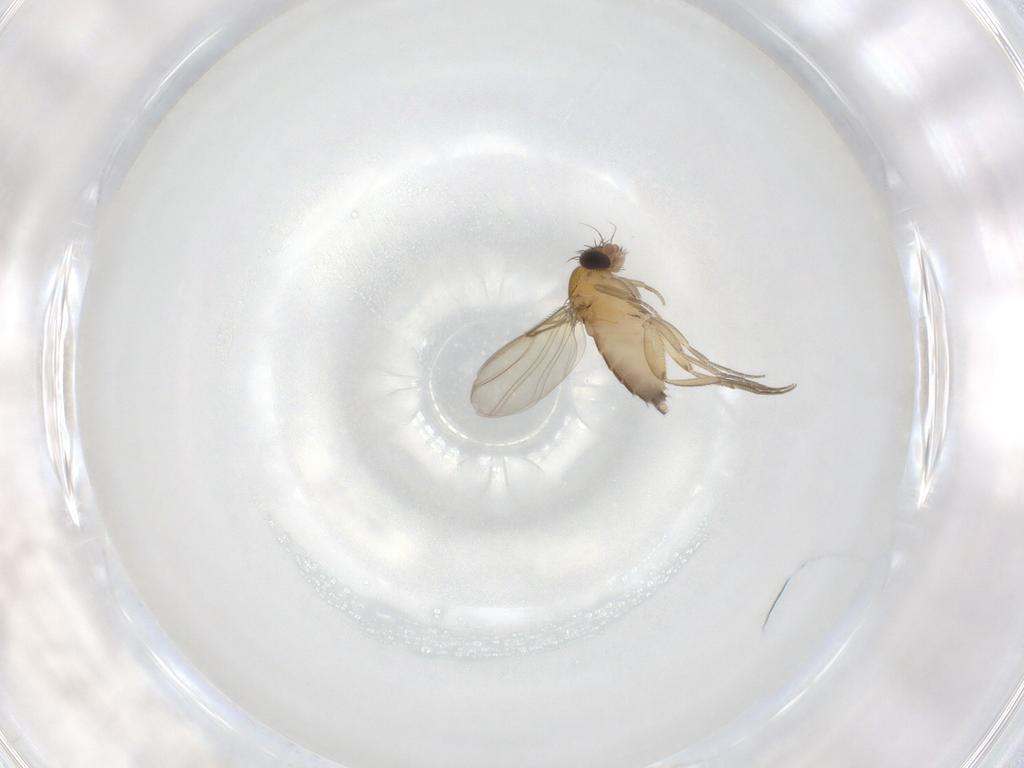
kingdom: Animalia
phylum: Arthropoda
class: Insecta
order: Diptera
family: Phoridae
